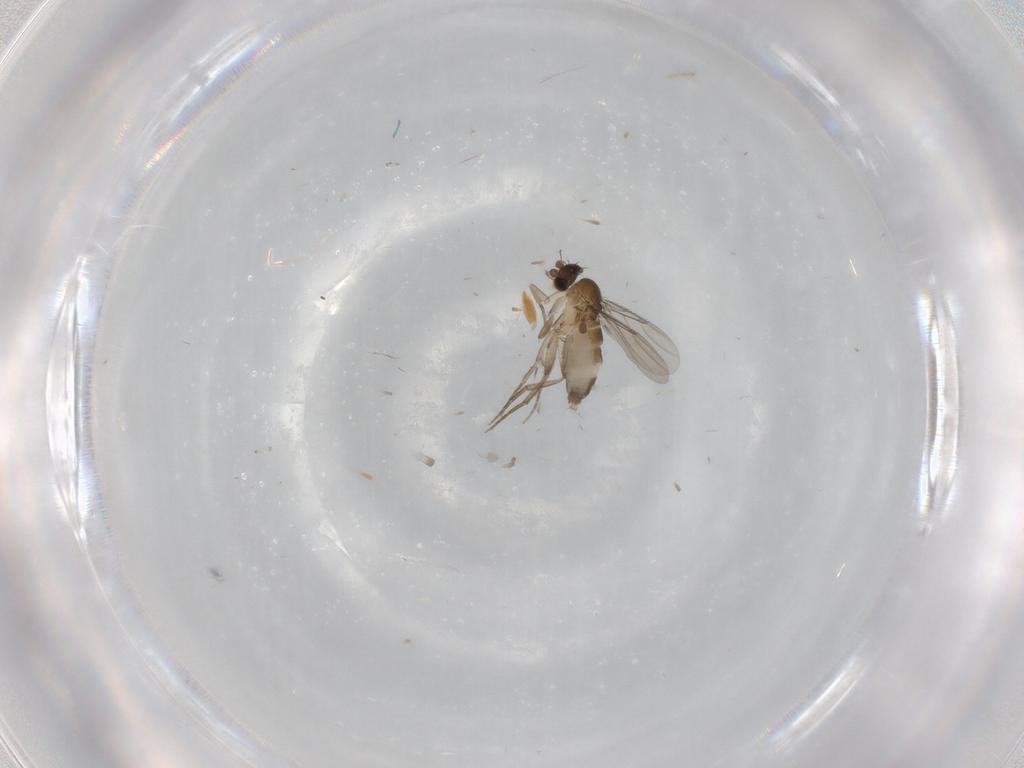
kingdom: Animalia
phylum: Arthropoda
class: Insecta
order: Diptera
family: Phoridae
